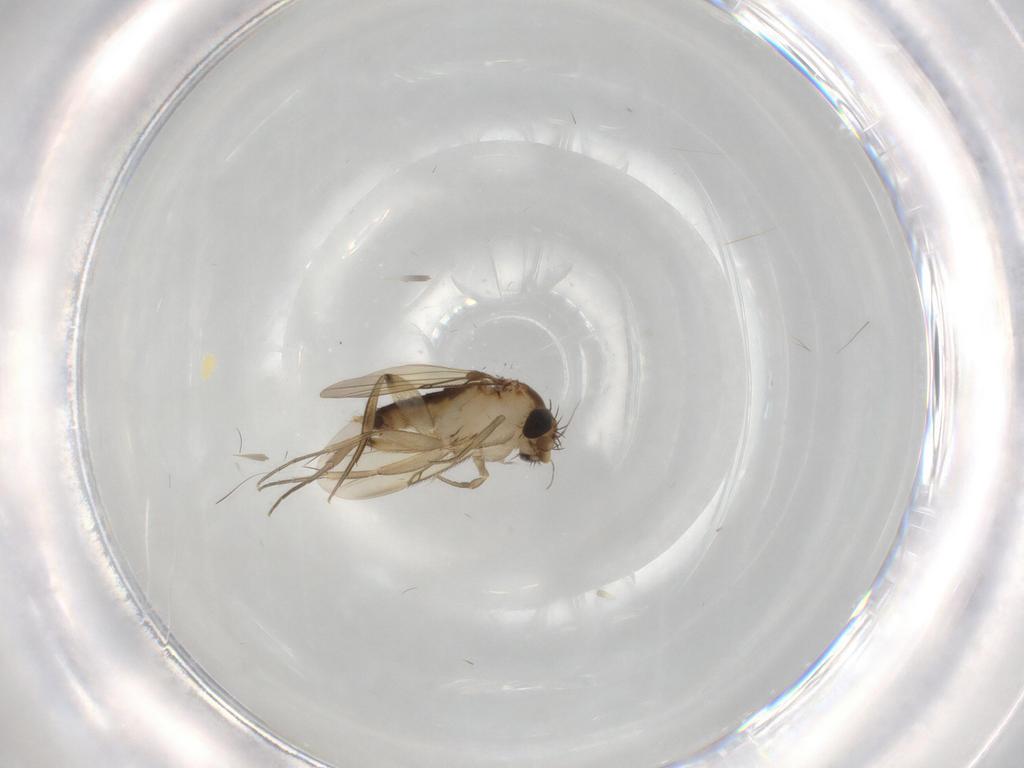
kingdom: Animalia
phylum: Arthropoda
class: Insecta
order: Diptera
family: Phoridae
